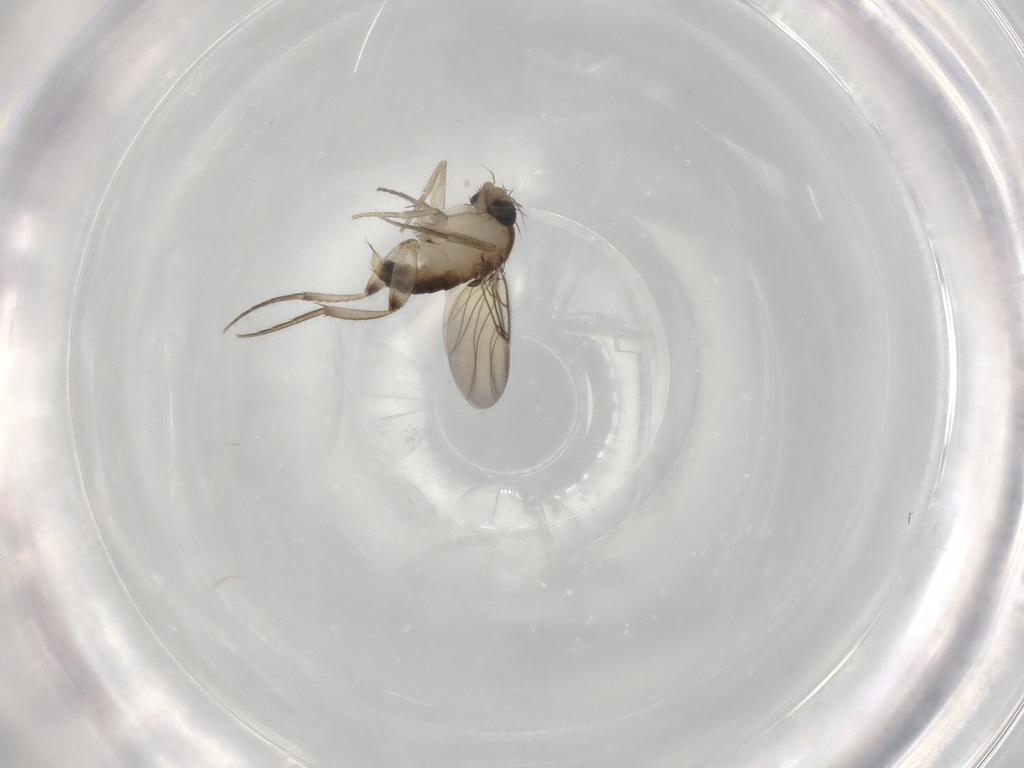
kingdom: Animalia
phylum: Arthropoda
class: Insecta
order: Diptera
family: Phoridae
